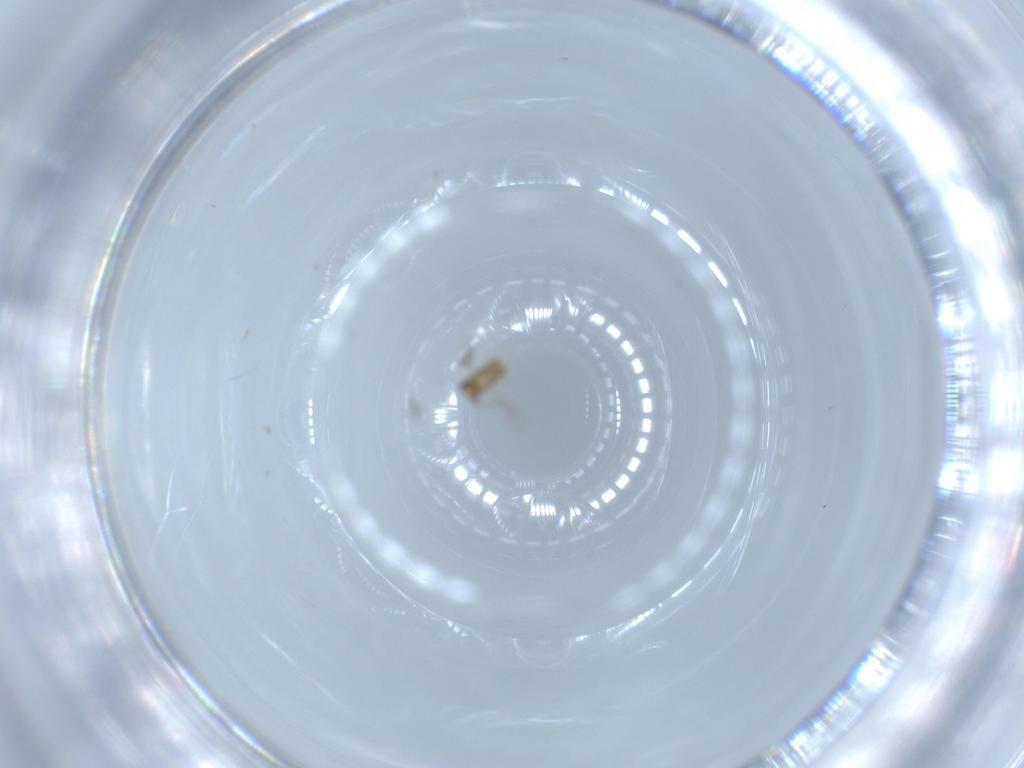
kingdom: Animalia
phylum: Arthropoda
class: Insecta
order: Hymenoptera
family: Aphelinidae
